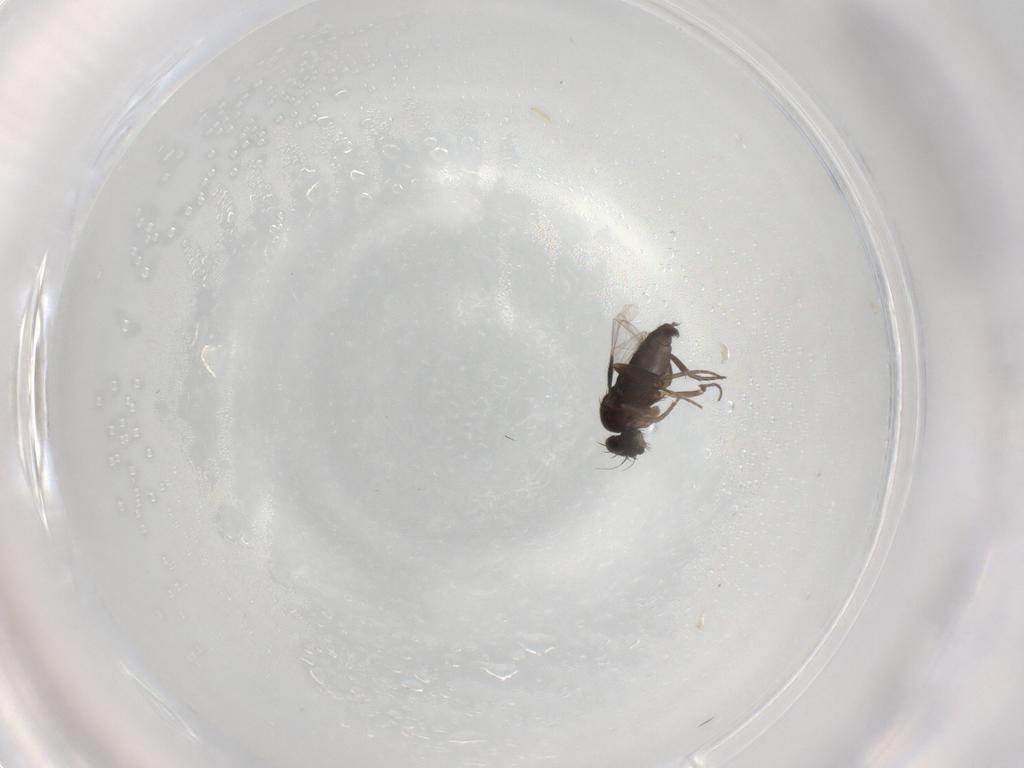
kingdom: Animalia
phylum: Arthropoda
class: Insecta
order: Diptera
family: Phoridae
